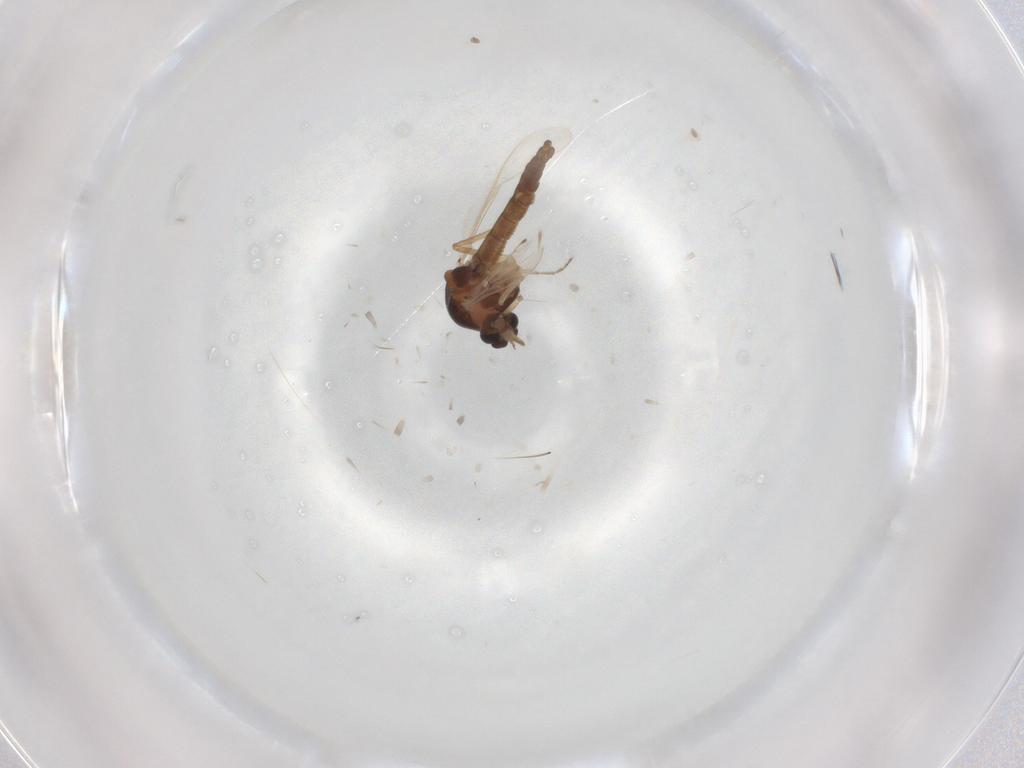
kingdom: Animalia
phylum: Arthropoda
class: Insecta
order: Diptera
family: Ceratopogonidae
